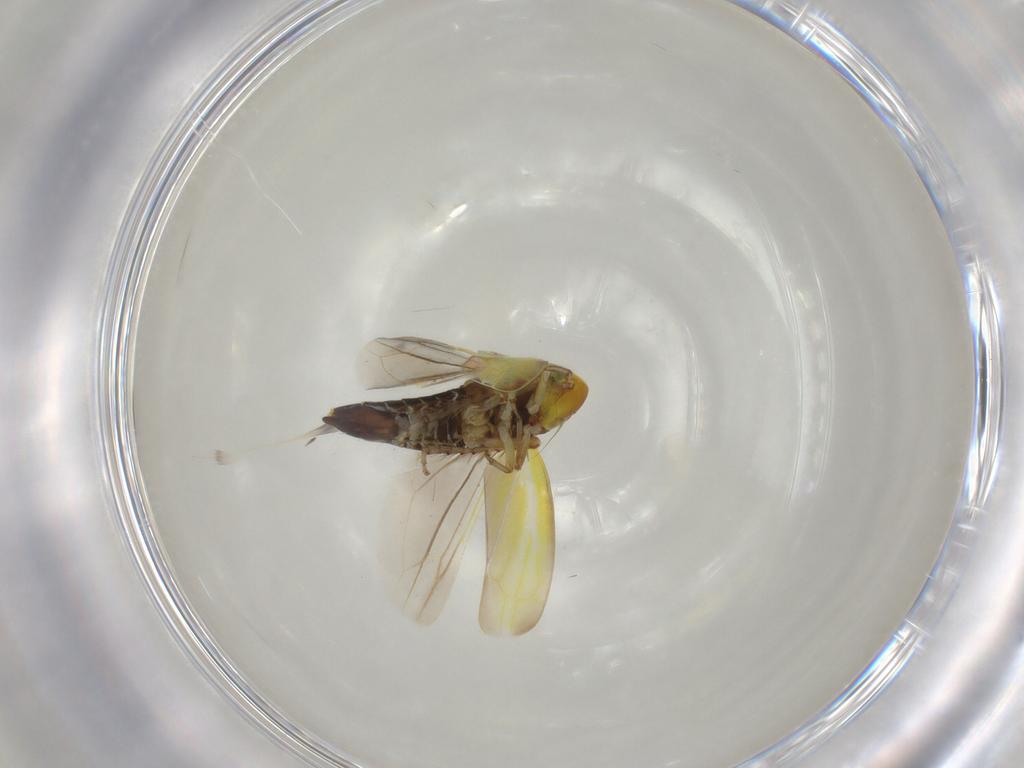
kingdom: Animalia
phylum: Arthropoda
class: Insecta
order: Hemiptera
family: Cicadellidae
